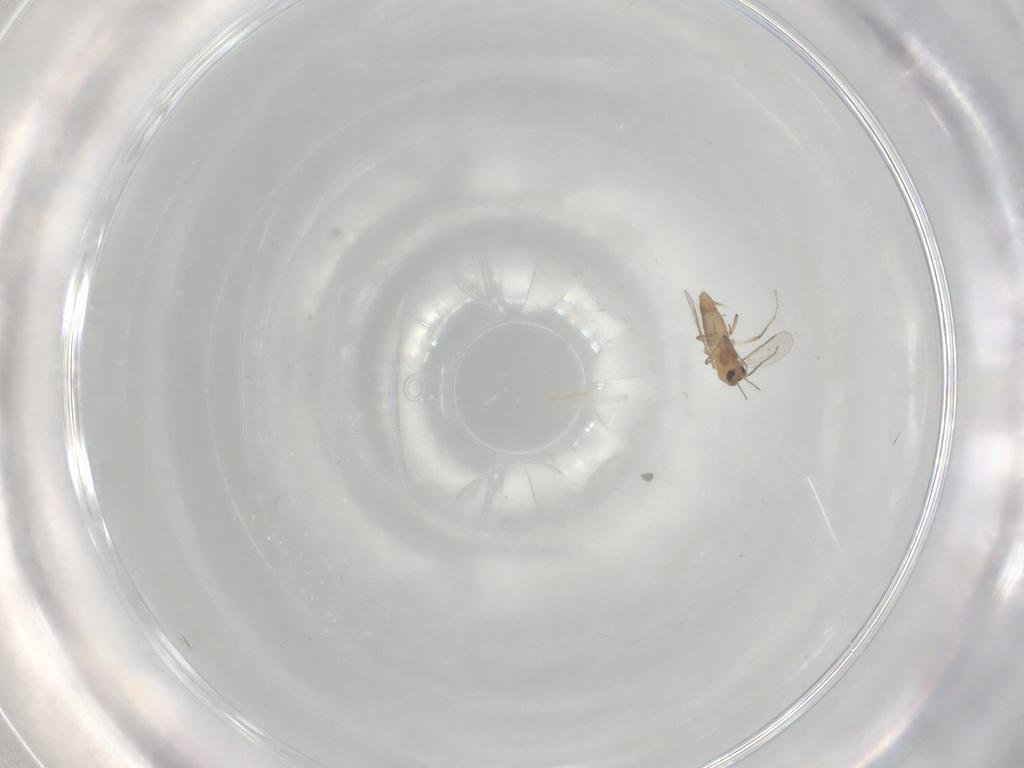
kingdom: Animalia
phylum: Arthropoda
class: Insecta
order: Diptera
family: Chironomidae
